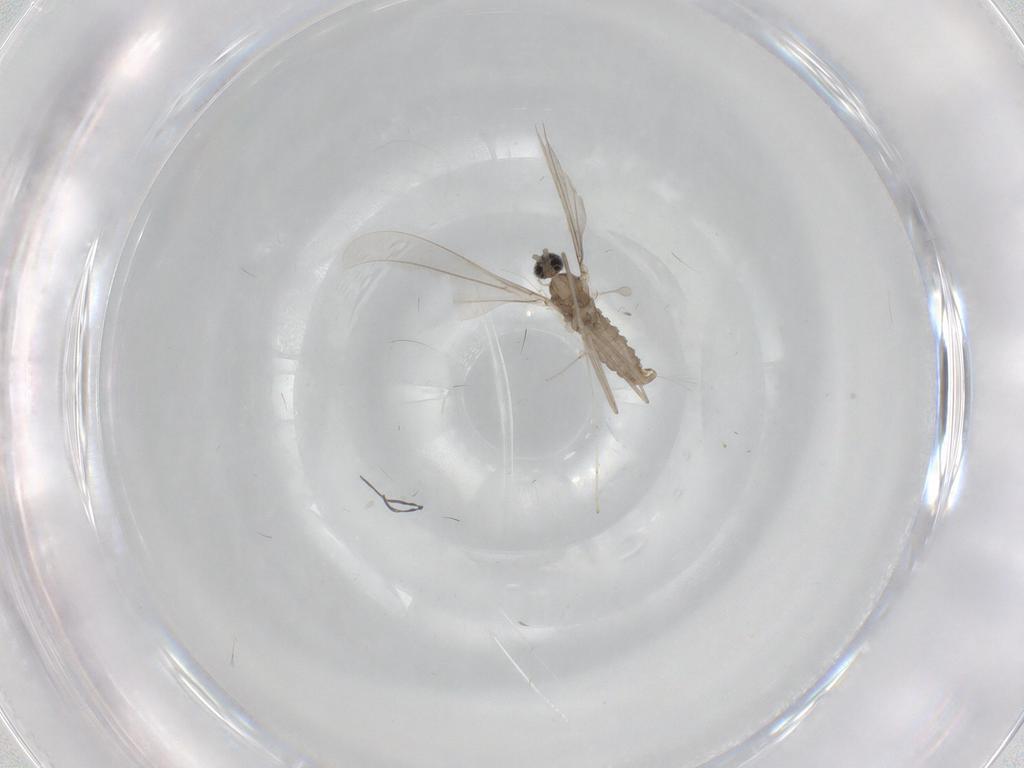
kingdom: Animalia
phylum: Arthropoda
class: Insecta
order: Diptera
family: Cecidomyiidae
